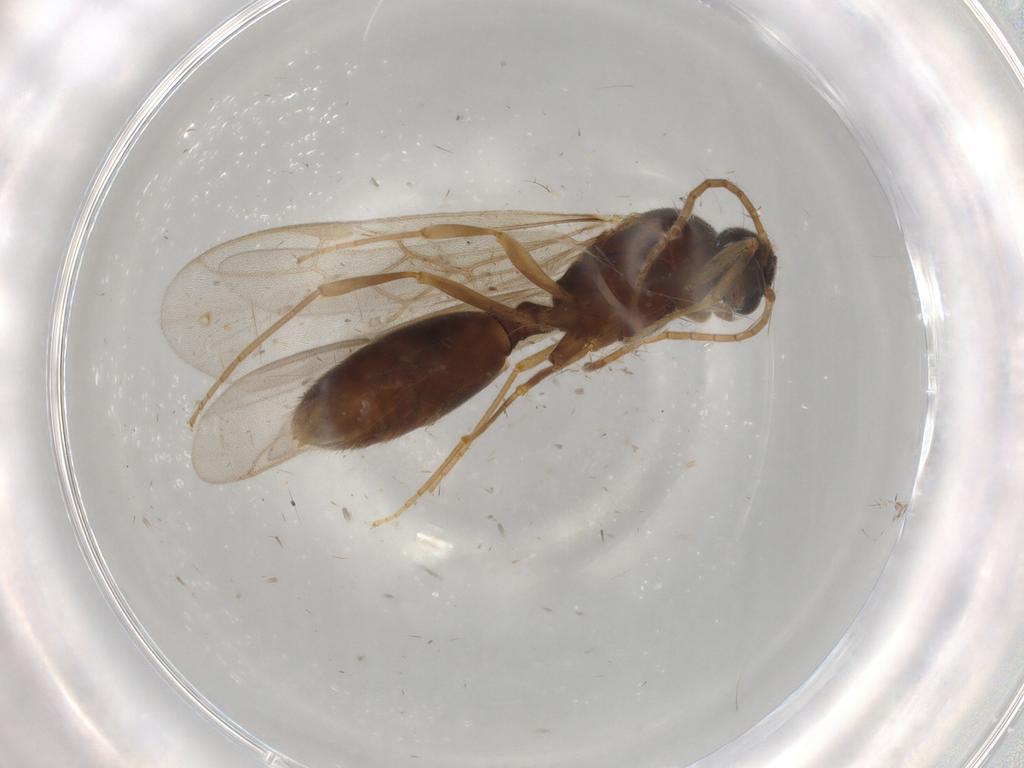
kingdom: Animalia
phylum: Arthropoda
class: Insecta
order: Hymenoptera
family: Formicidae
